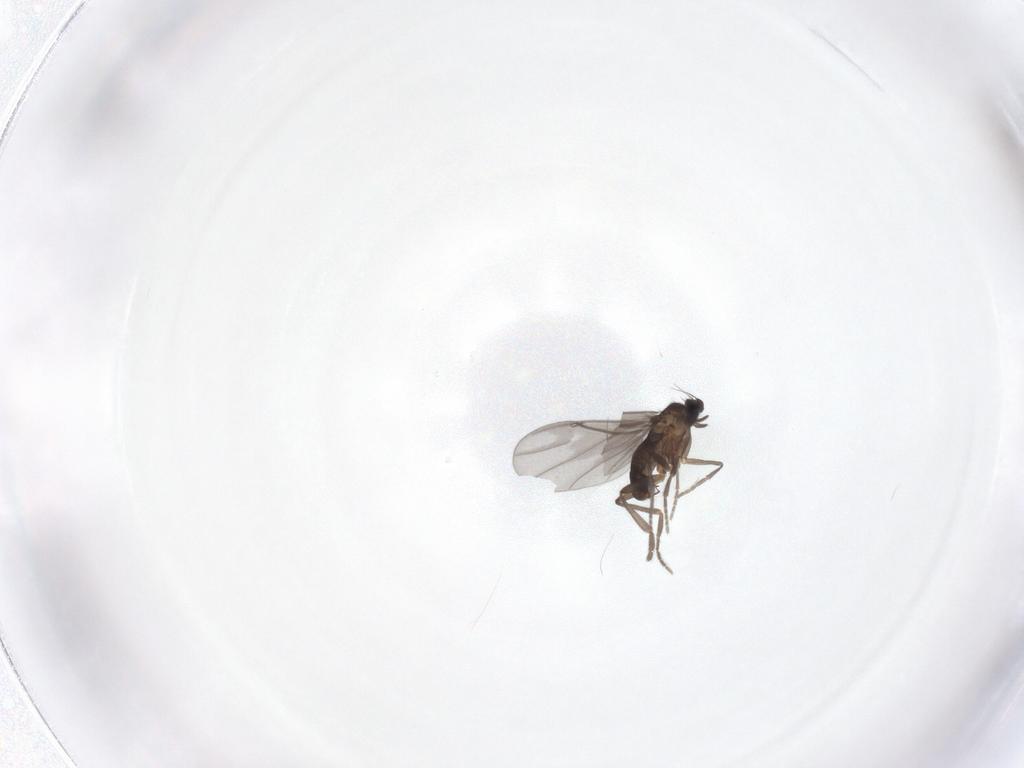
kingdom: Animalia
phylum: Arthropoda
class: Insecta
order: Diptera
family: Phoridae
